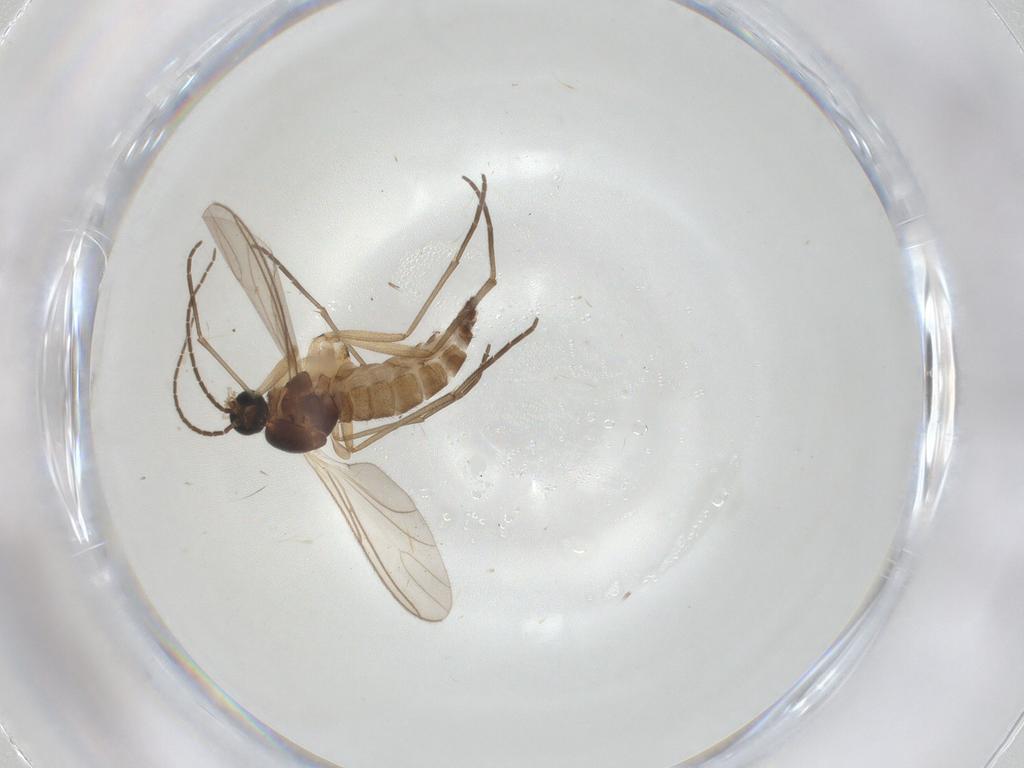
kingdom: Animalia
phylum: Arthropoda
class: Insecta
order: Diptera
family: Sciaridae
